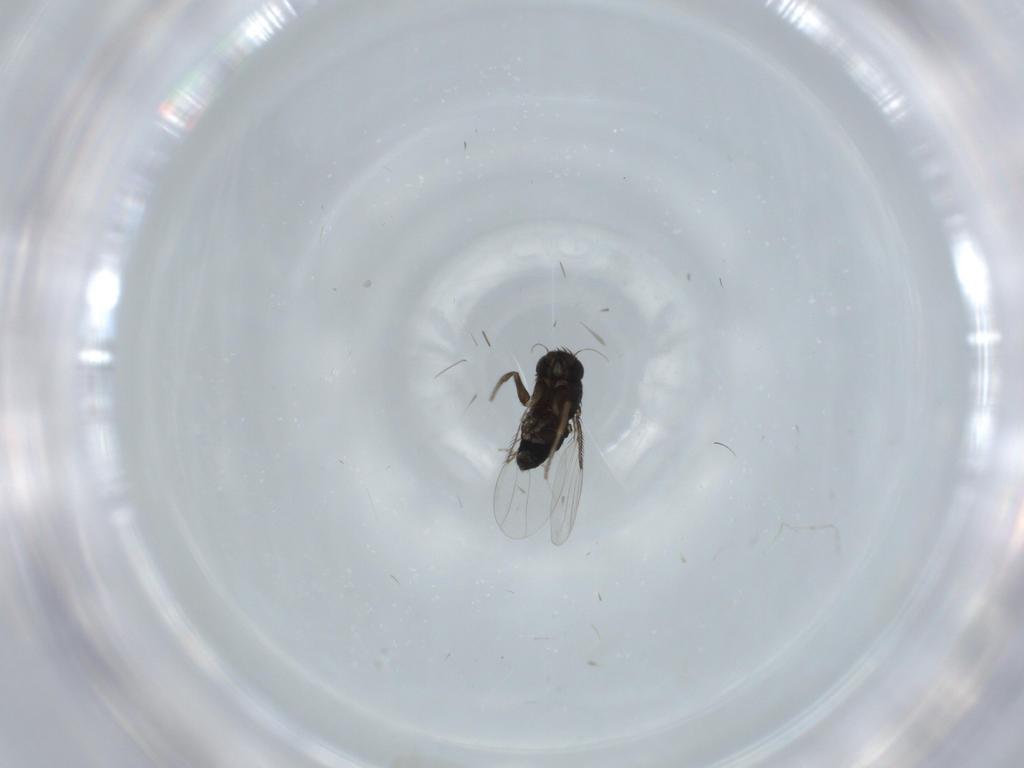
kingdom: Animalia
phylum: Arthropoda
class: Insecta
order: Diptera
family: Phoridae
